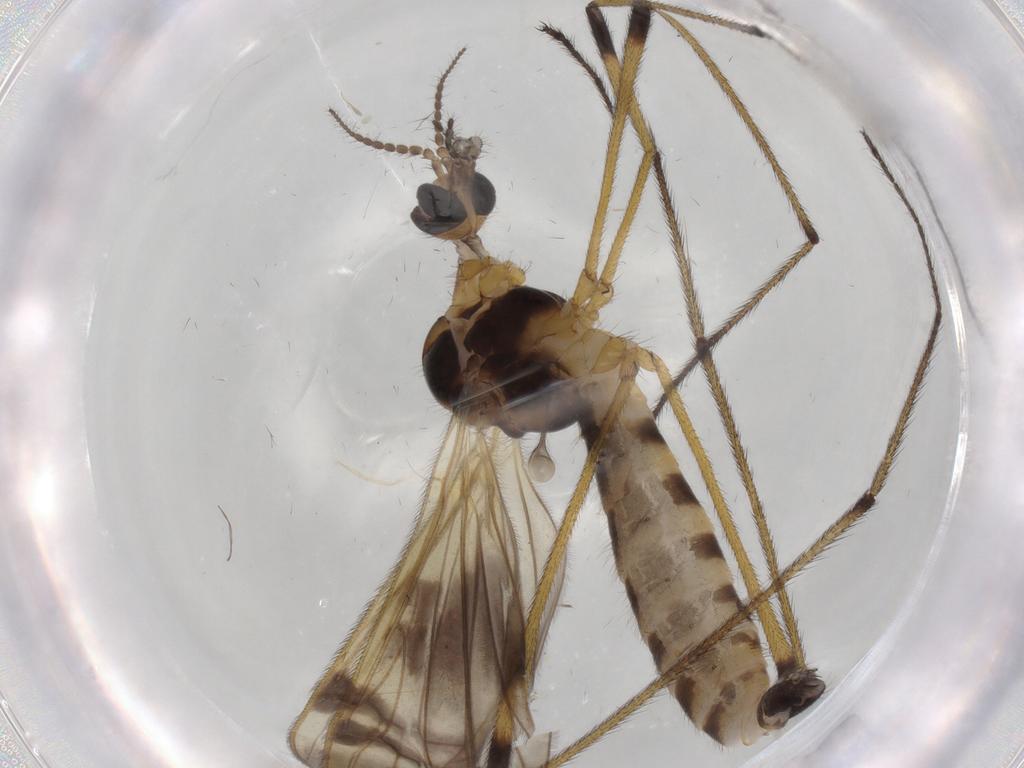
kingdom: Animalia
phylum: Arthropoda
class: Insecta
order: Diptera
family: Limoniidae
